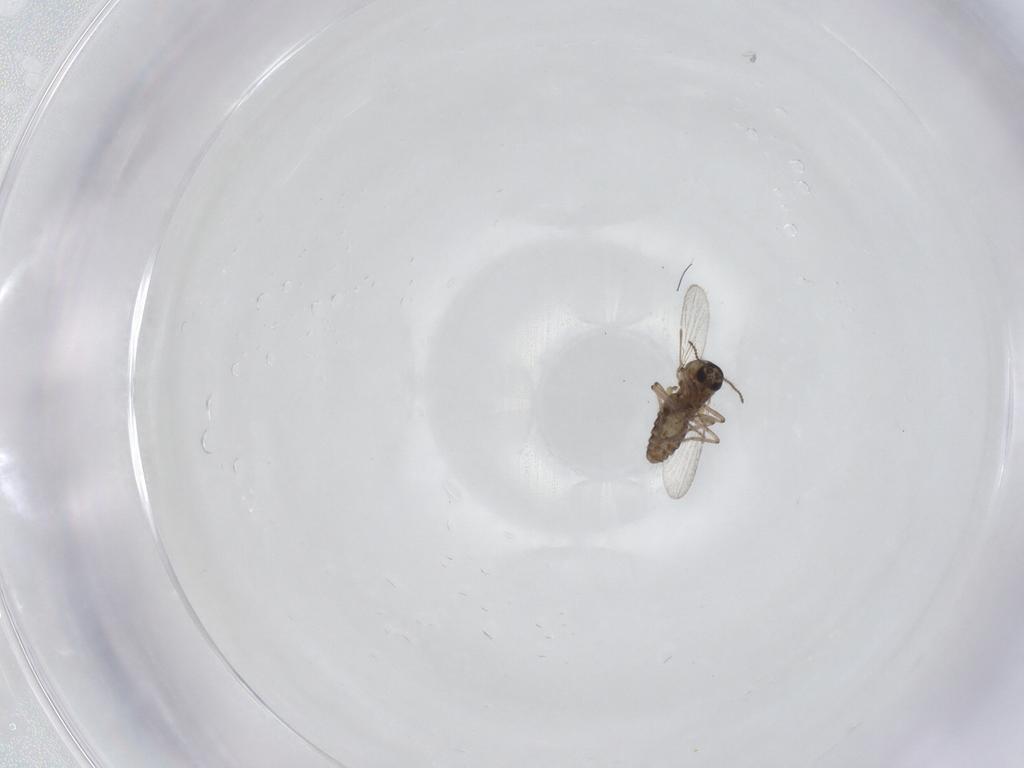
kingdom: Animalia
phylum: Arthropoda
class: Insecta
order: Diptera
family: Ceratopogonidae
